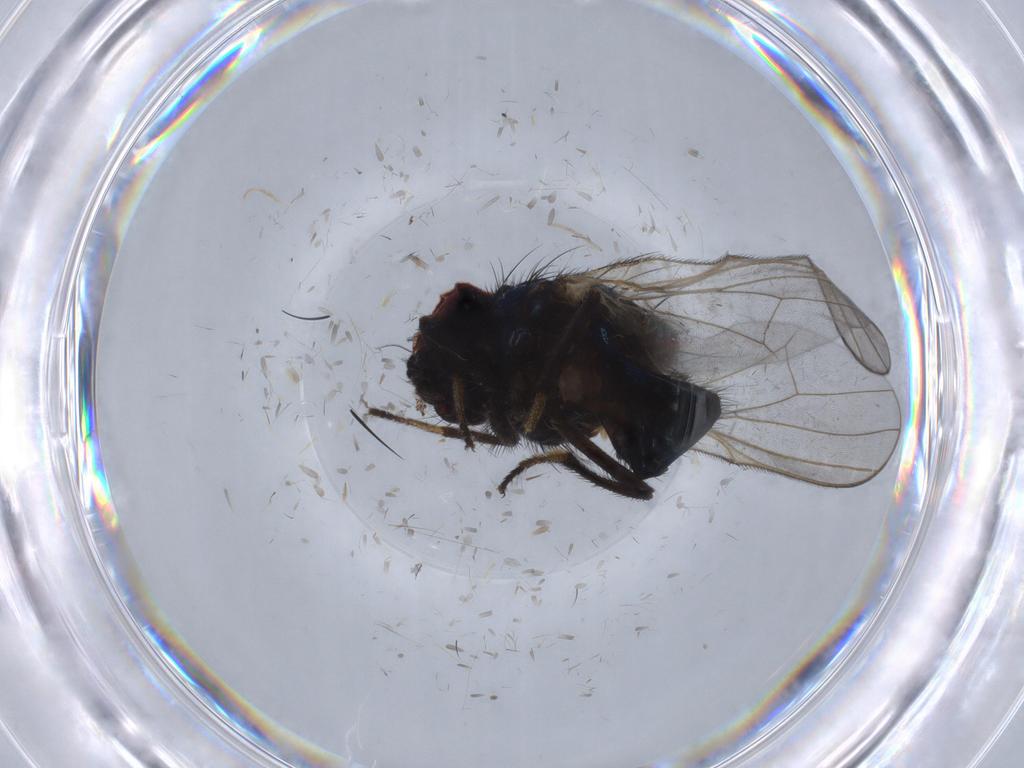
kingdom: Animalia
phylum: Arthropoda
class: Insecta
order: Diptera
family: Lonchaeidae
